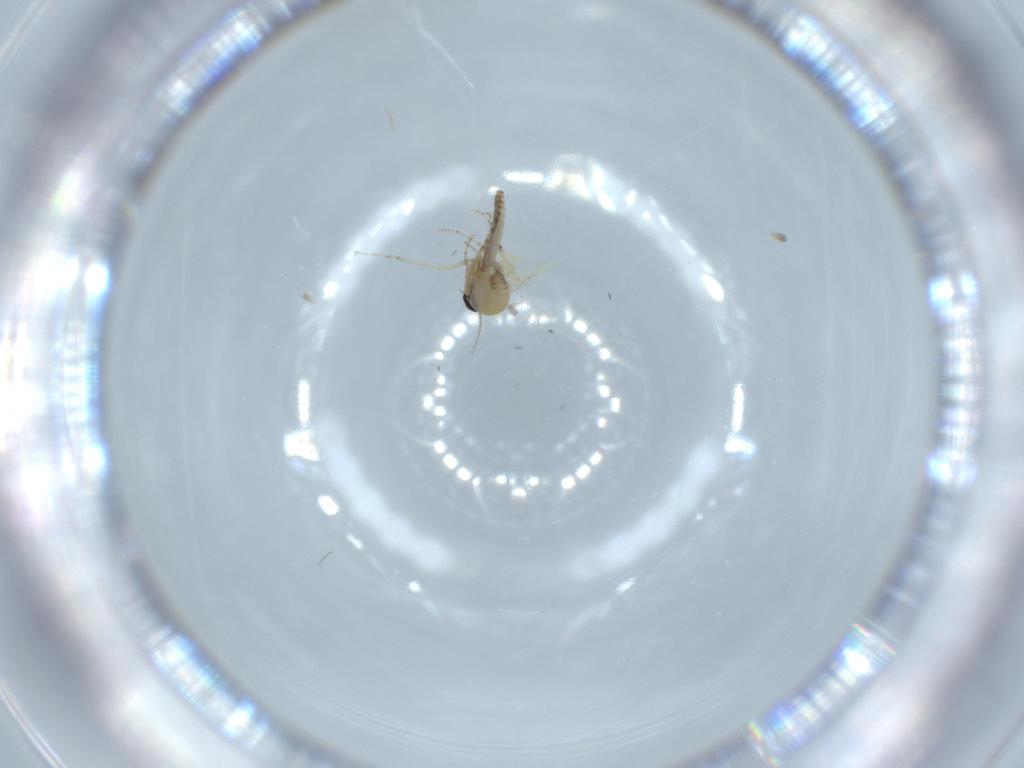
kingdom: Animalia
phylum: Arthropoda
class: Insecta
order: Diptera
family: Ceratopogonidae
